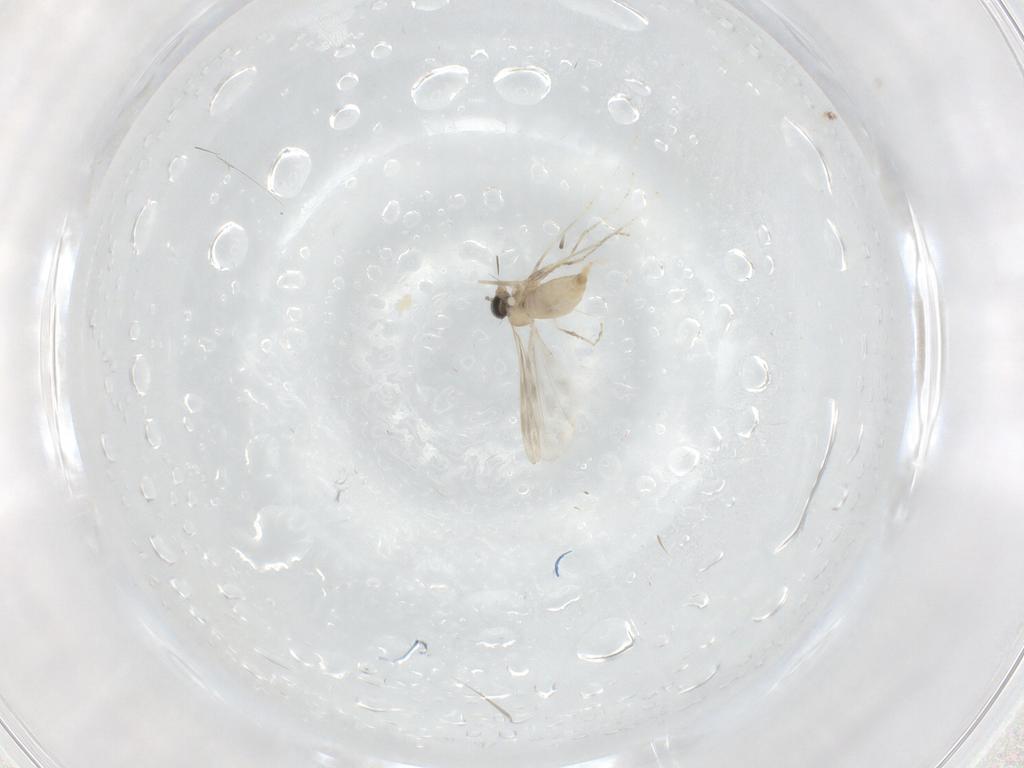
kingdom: Animalia
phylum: Arthropoda
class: Insecta
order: Diptera
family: Cecidomyiidae
